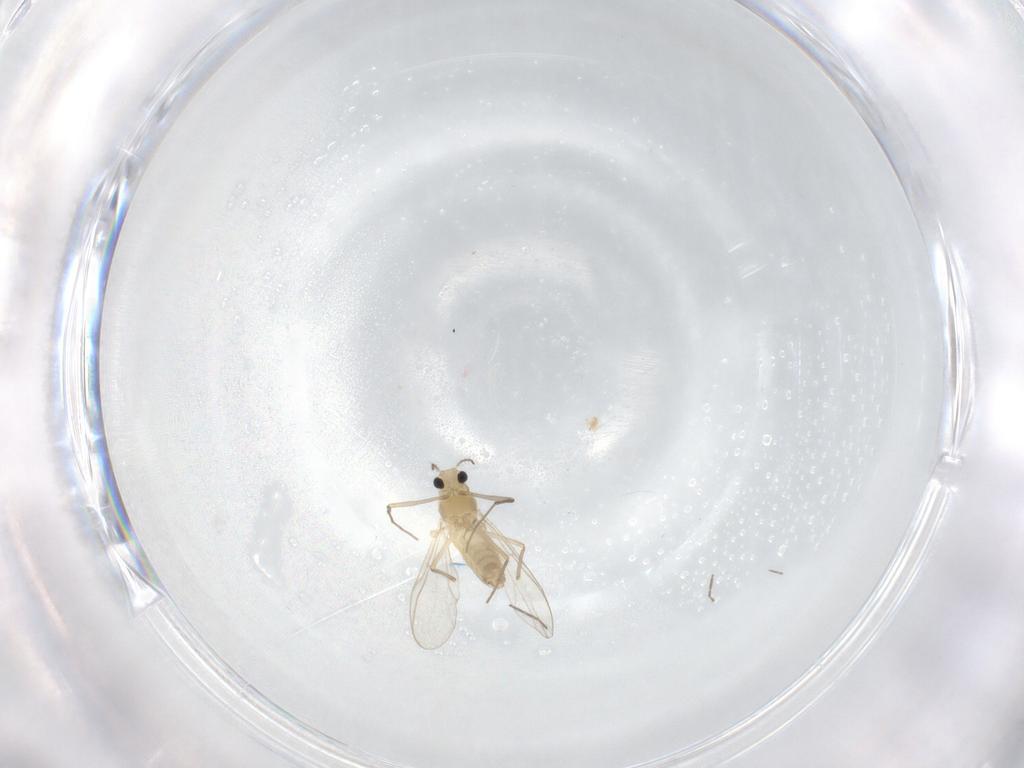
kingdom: Animalia
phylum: Arthropoda
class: Insecta
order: Diptera
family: Chironomidae
